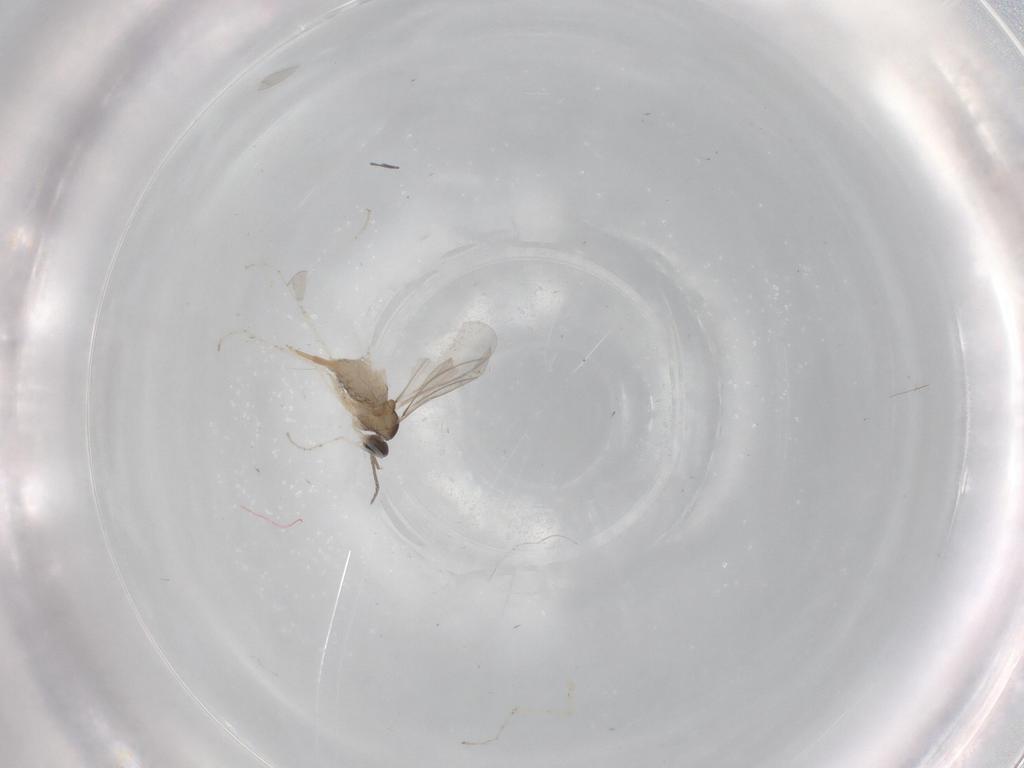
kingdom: Animalia
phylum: Arthropoda
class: Insecta
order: Diptera
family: Cecidomyiidae
